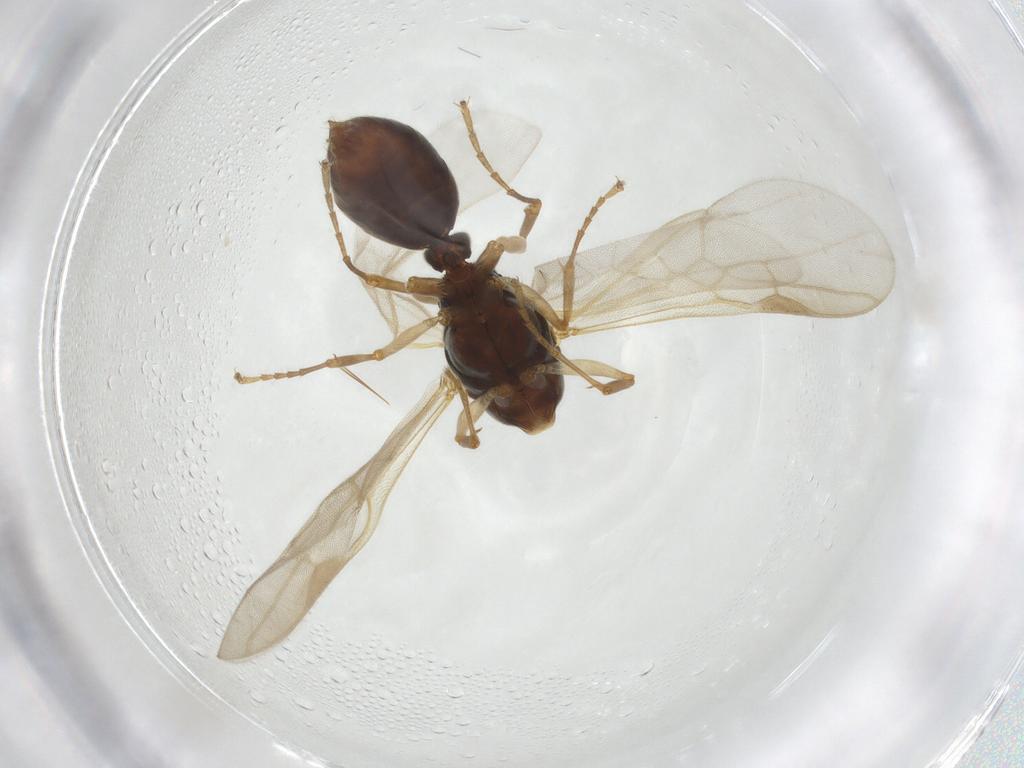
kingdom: Animalia
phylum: Arthropoda
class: Insecta
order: Hymenoptera
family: Formicidae
